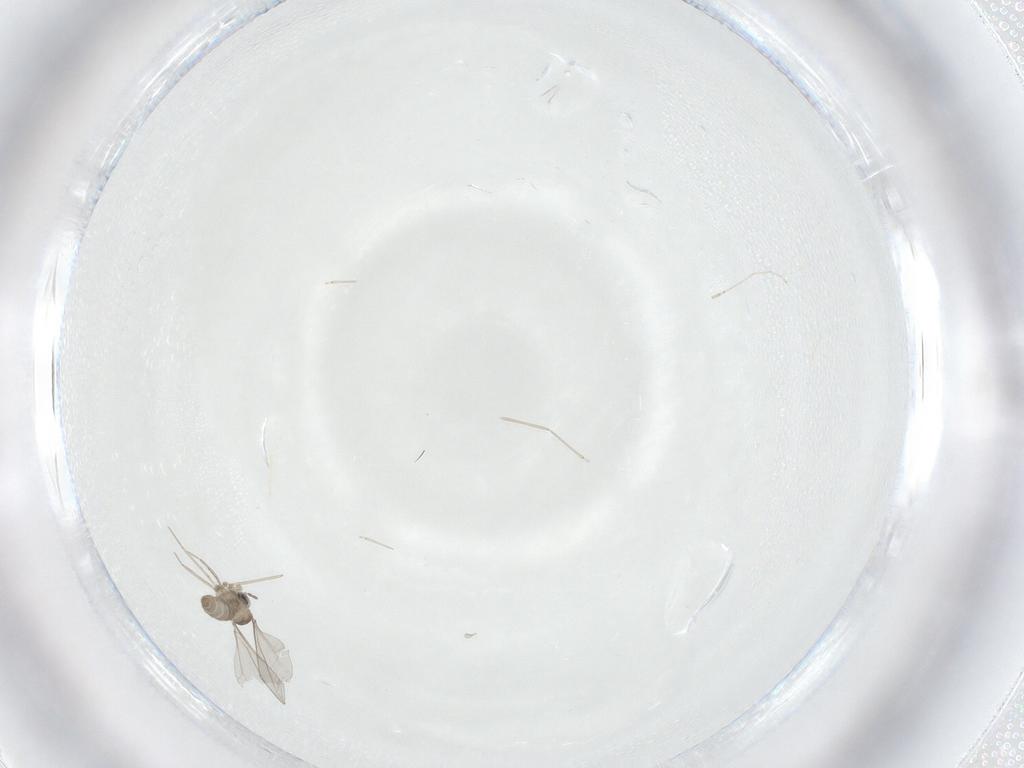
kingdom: Animalia
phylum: Arthropoda
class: Insecta
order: Diptera
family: Cecidomyiidae
